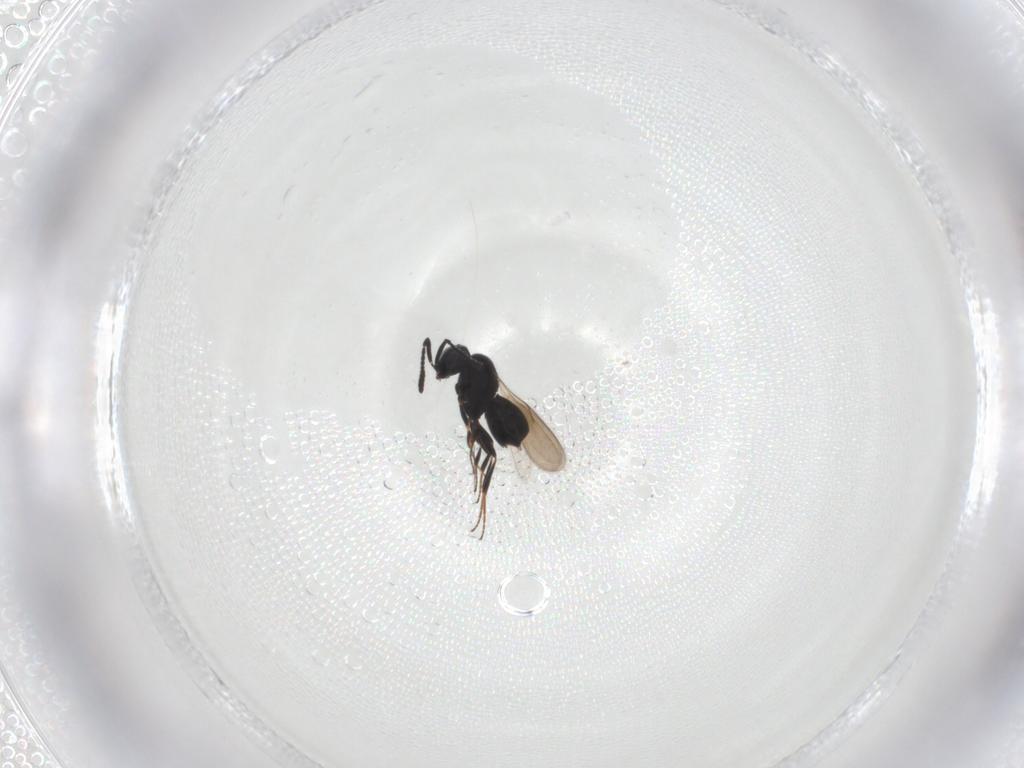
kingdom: Animalia
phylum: Arthropoda
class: Insecta
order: Hymenoptera
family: Scelionidae
